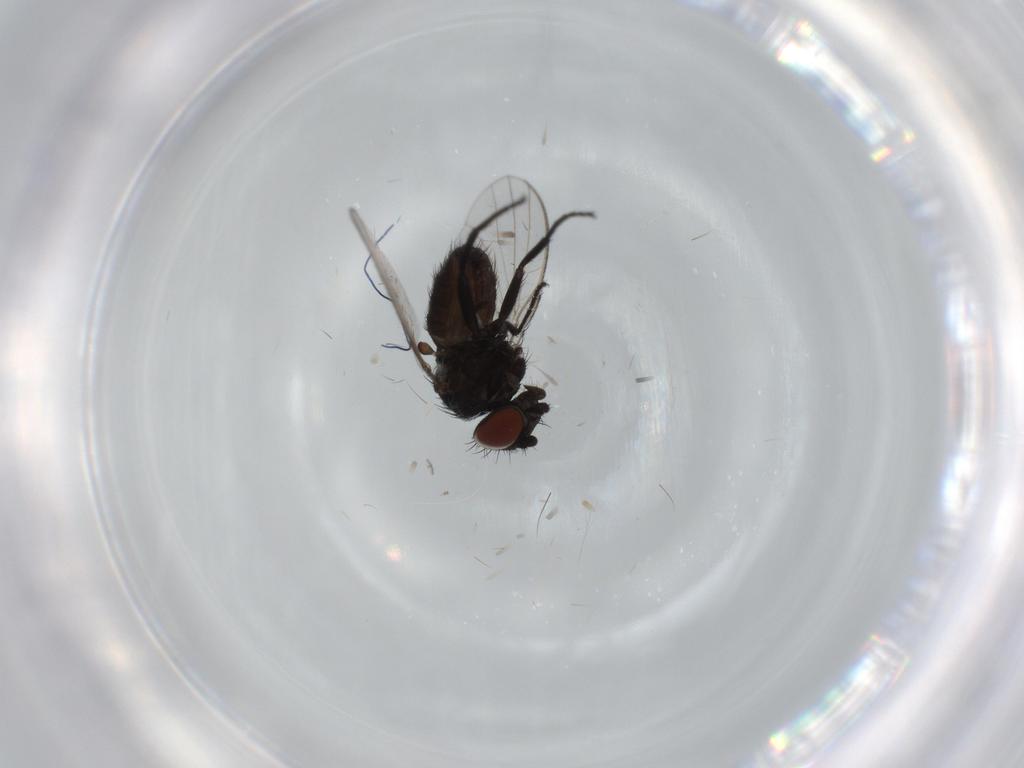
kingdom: Animalia
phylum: Arthropoda
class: Insecta
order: Diptera
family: Milichiidae
